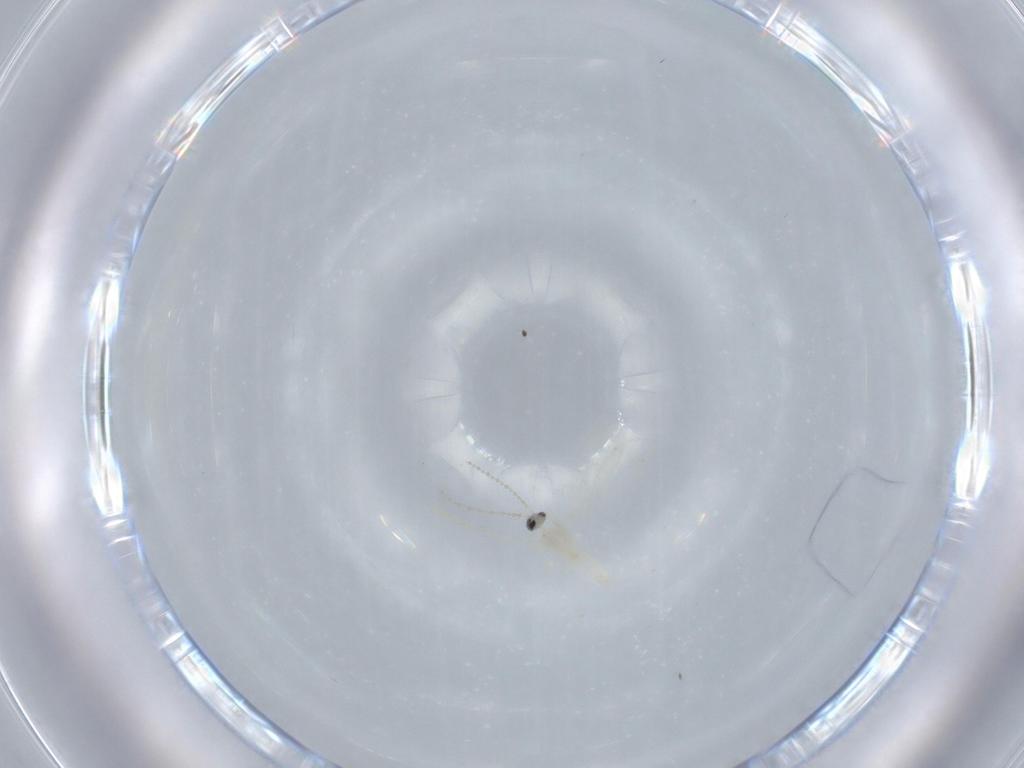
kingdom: Animalia
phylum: Arthropoda
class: Insecta
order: Diptera
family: Cecidomyiidae
